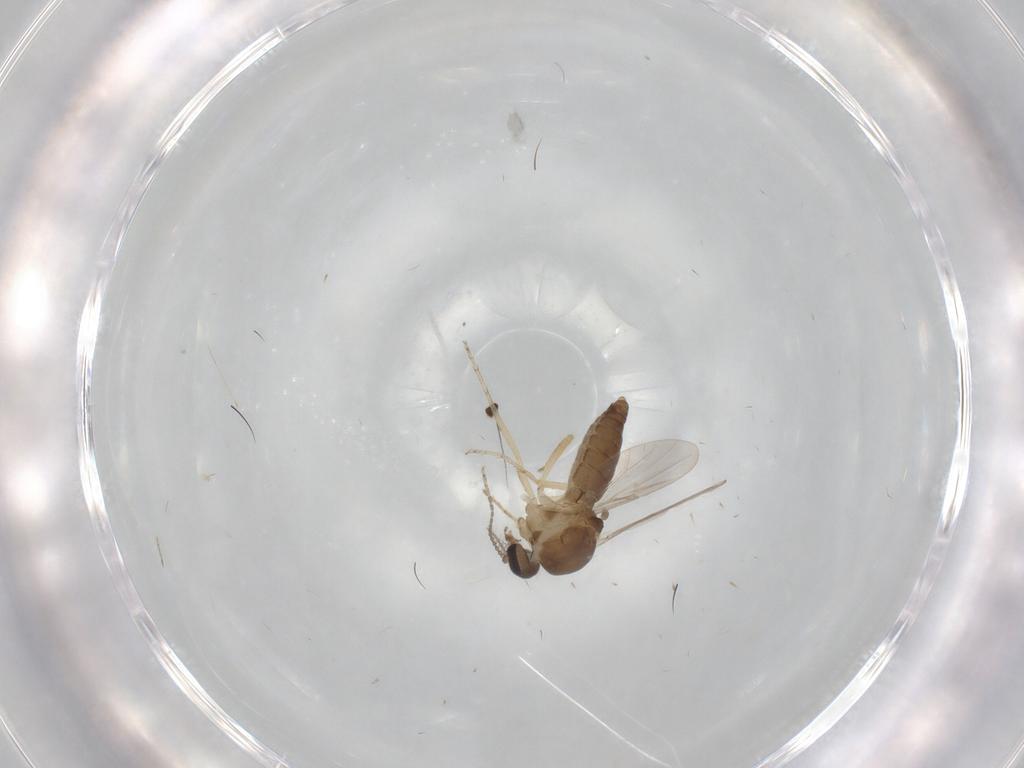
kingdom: Animalia
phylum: Arthropoda
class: Insecta
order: Diptera
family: Ceratopogonidae
